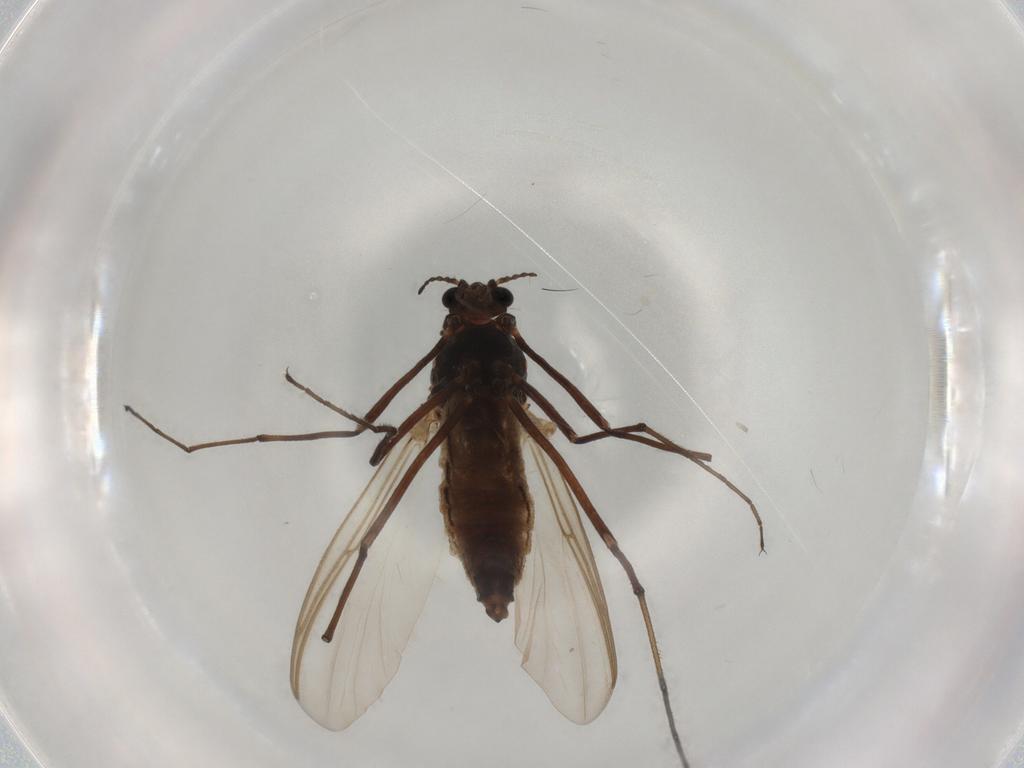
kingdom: Animalia
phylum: Arthropoda
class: Insecta
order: Diptera
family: Chironomidae
